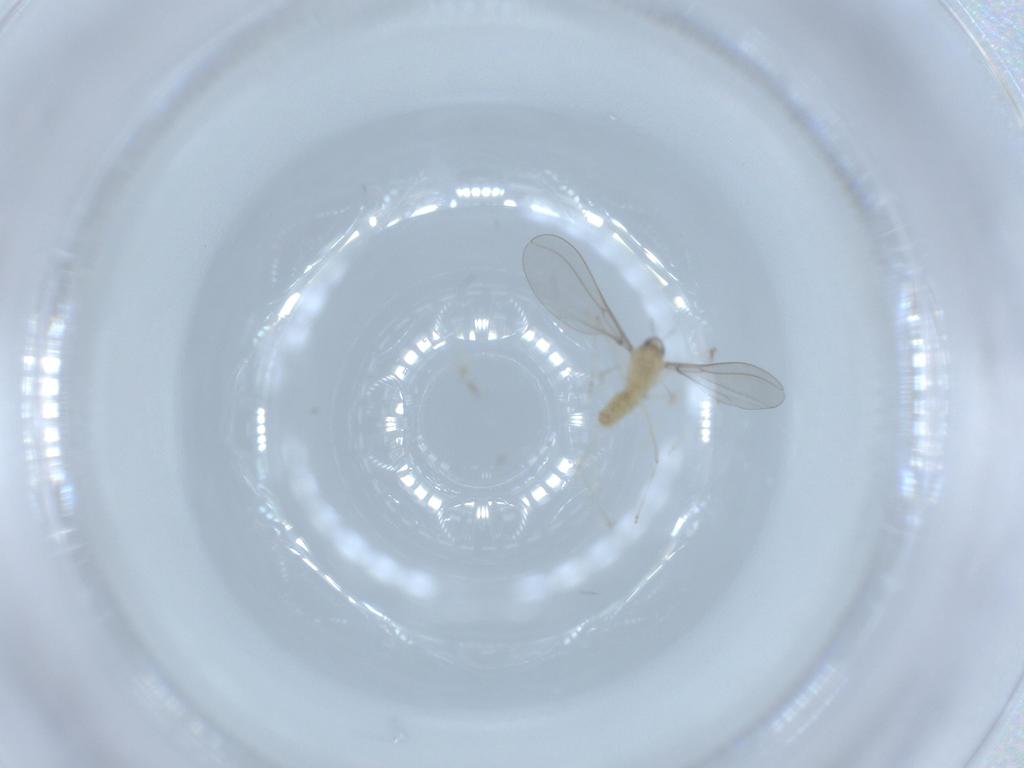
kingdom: Animalia
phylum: Arthropoda
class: Insecta
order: Diptera
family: Cecidomyiidae
